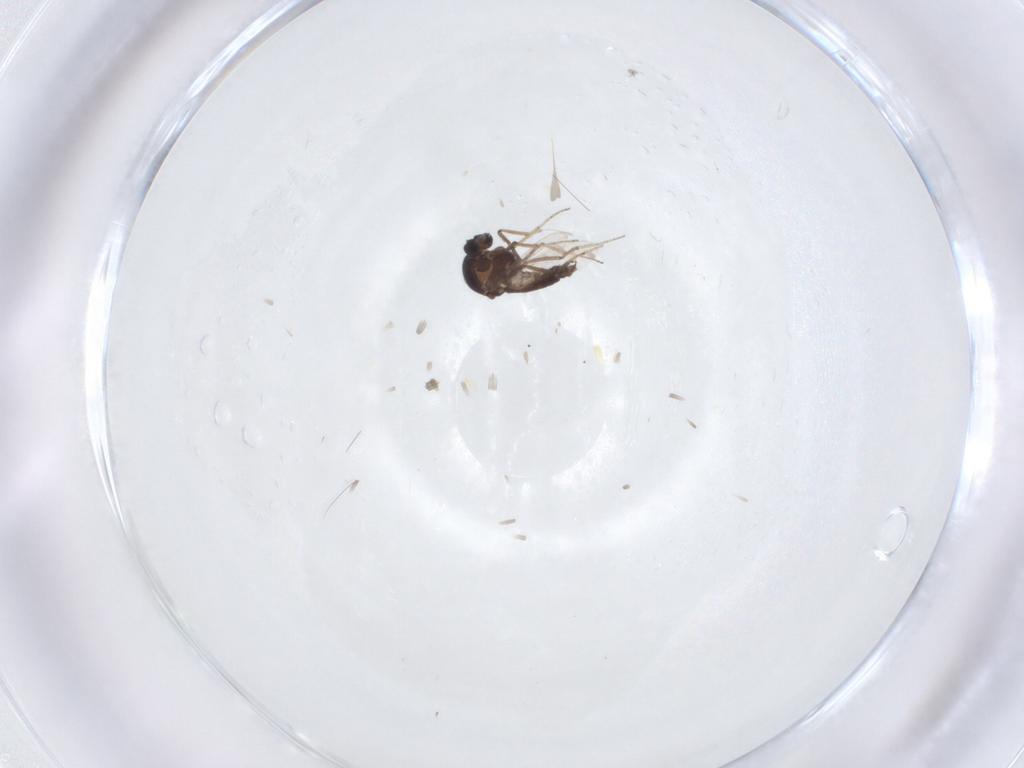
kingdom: Animalia
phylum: Arthropoda
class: Insecta
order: Diptera
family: Ceratopogonidae
